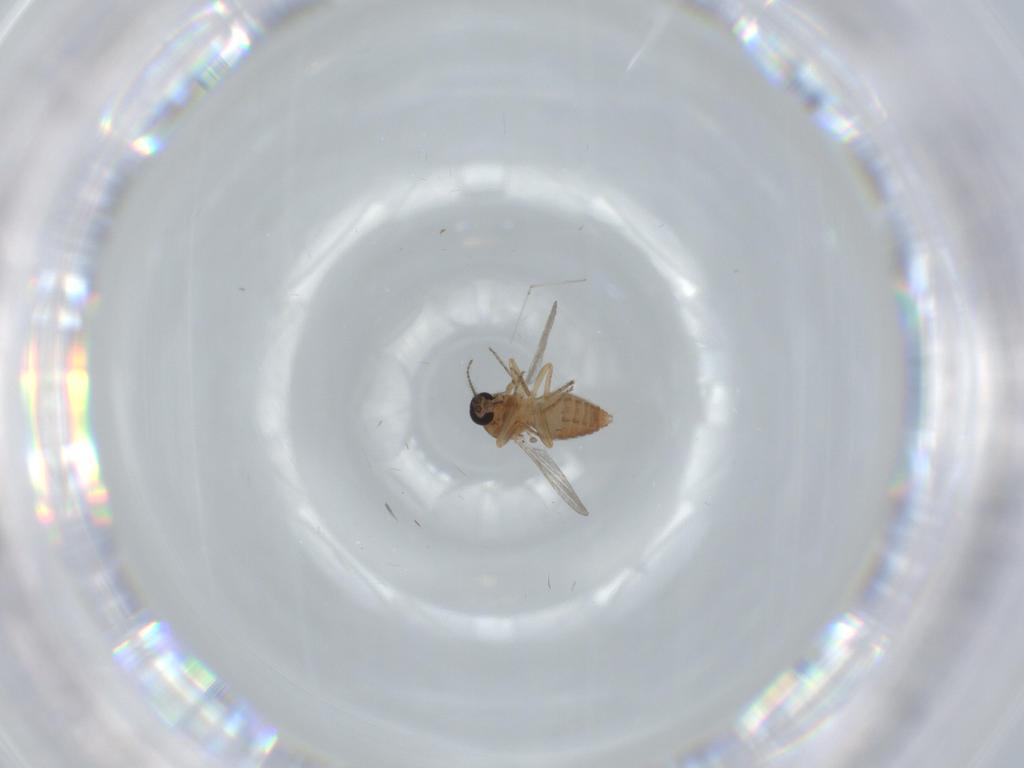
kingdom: Animalia
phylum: Arthropoda
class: Insecta
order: Diptera
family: Ceratopogonidae
